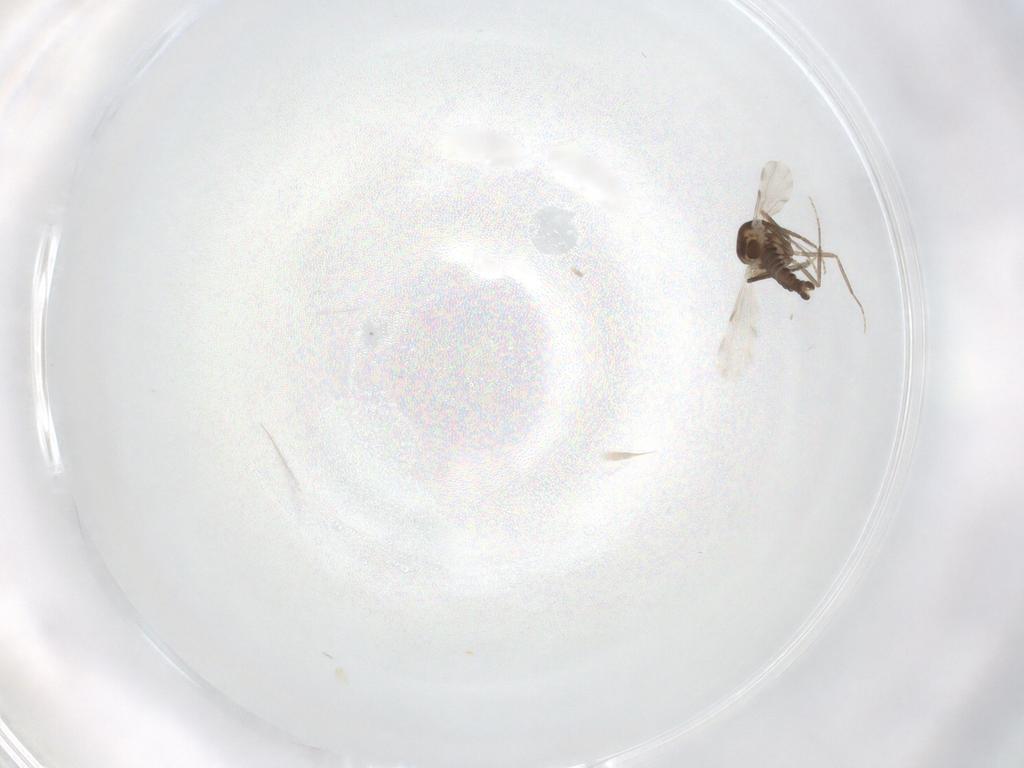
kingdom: Animalia
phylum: Arthropoda
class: Insecta
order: Diptera
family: Ceratopogonidae
